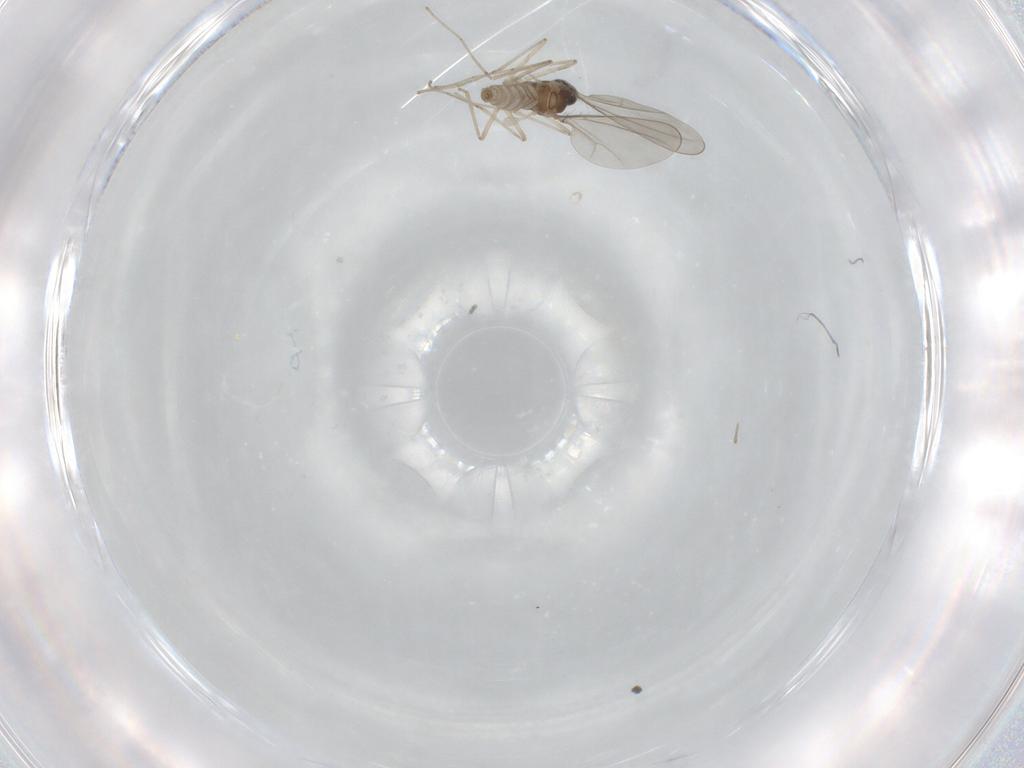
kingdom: Animalia
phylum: Arthropoda
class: Insecta
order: Diptera
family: Cecidomyiidae
